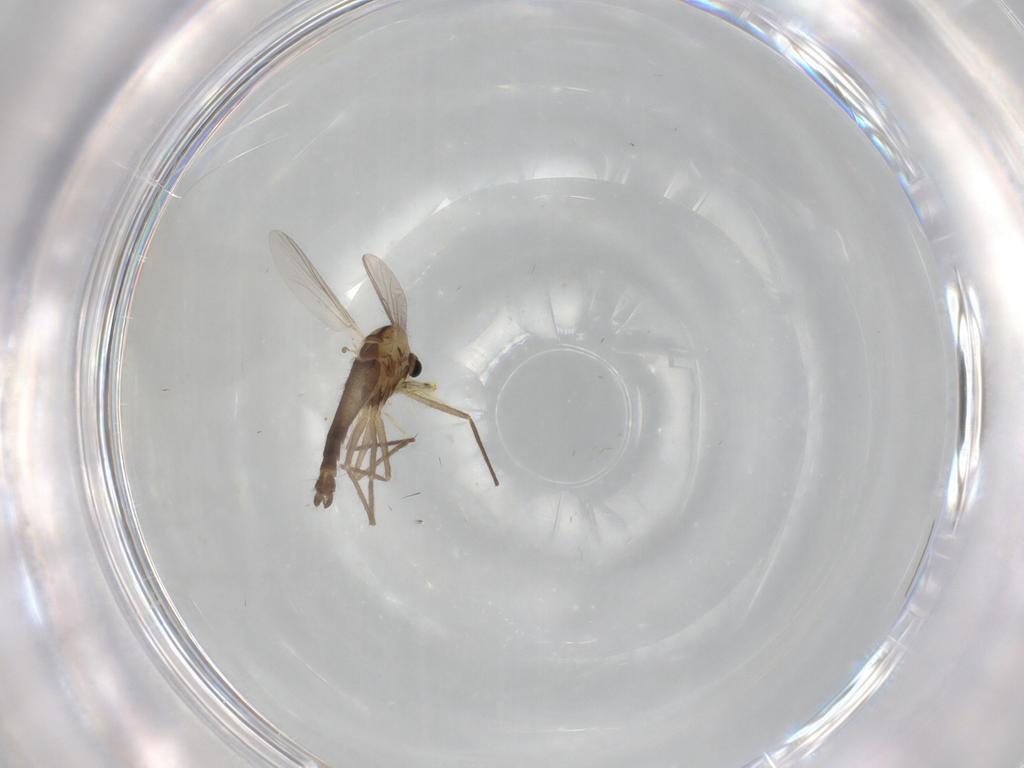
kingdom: Animalia
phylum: Arthropoda
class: Insecta
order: Diptera
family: Chironomidae
